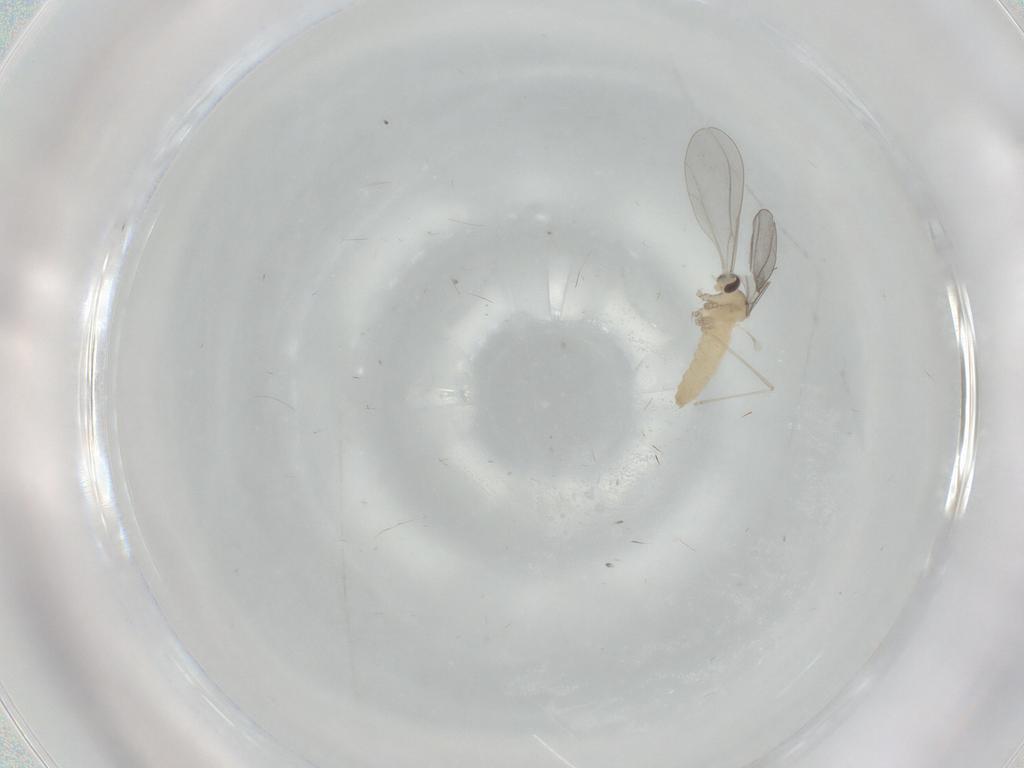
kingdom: Animalia
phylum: Arthropoda
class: Insecta
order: Diptera
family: Cecidomyiidae
